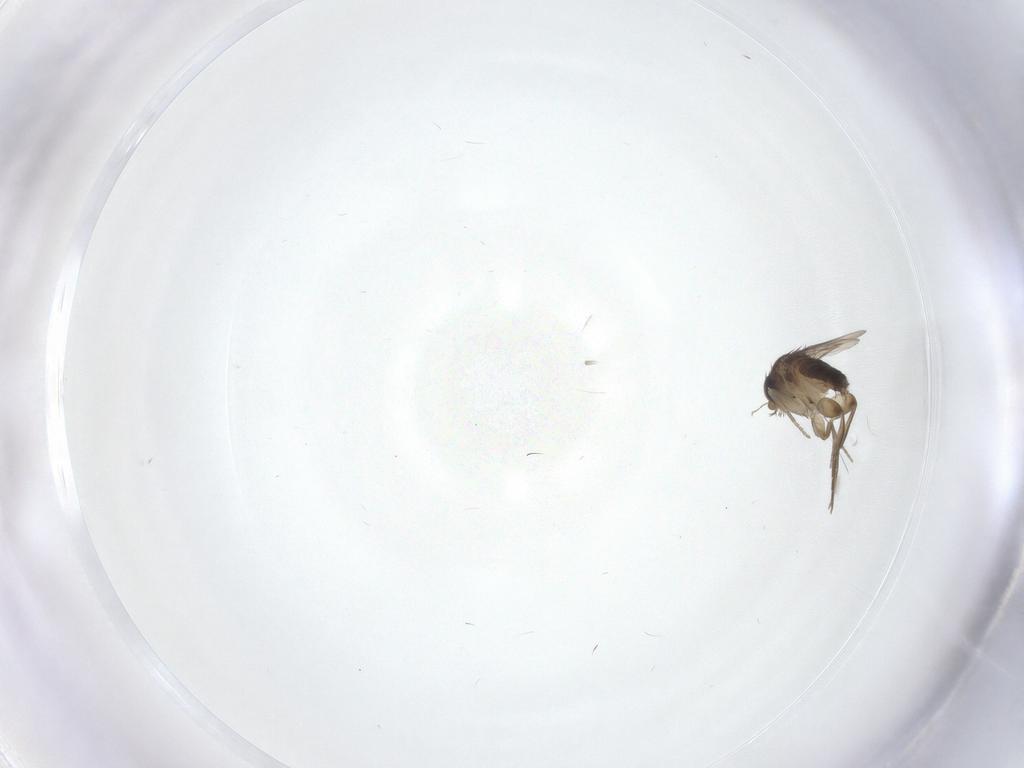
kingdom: Animalia
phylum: Arthropoda
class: Insecta
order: Diptera
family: Phoridae
